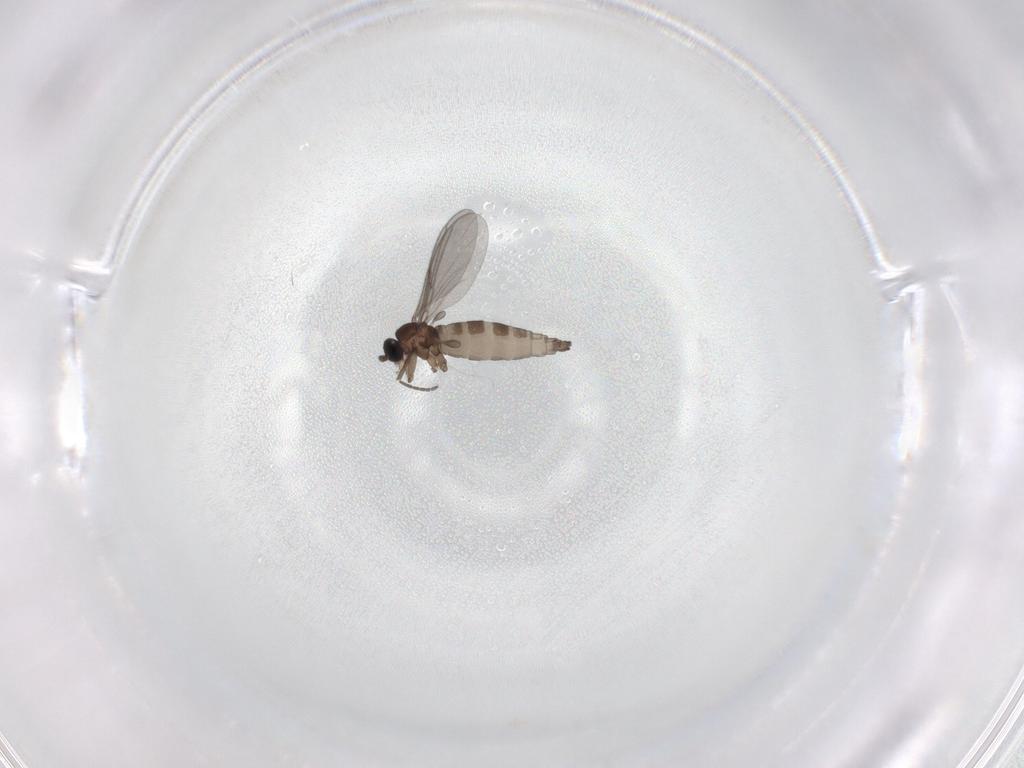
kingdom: Animalia
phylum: Arthropoda
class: Insecta
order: Diptera
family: Sciaridae
